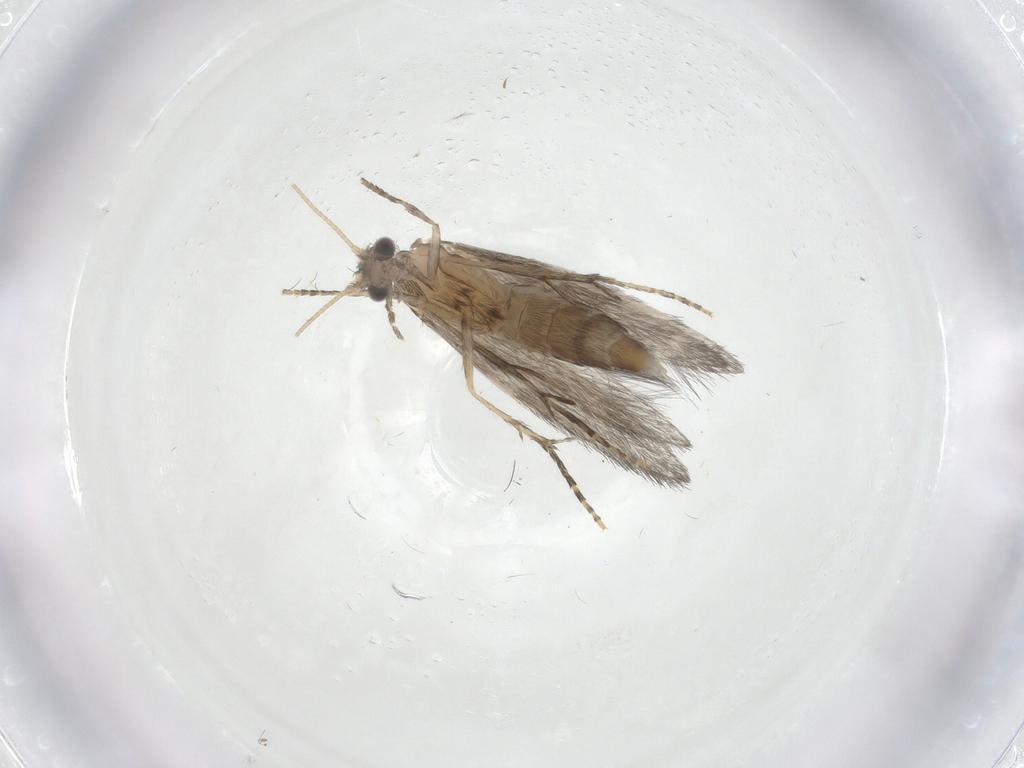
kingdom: Animalia
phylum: Arthropoda
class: Insecta
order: Trichoptera
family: Hydroptilidae
